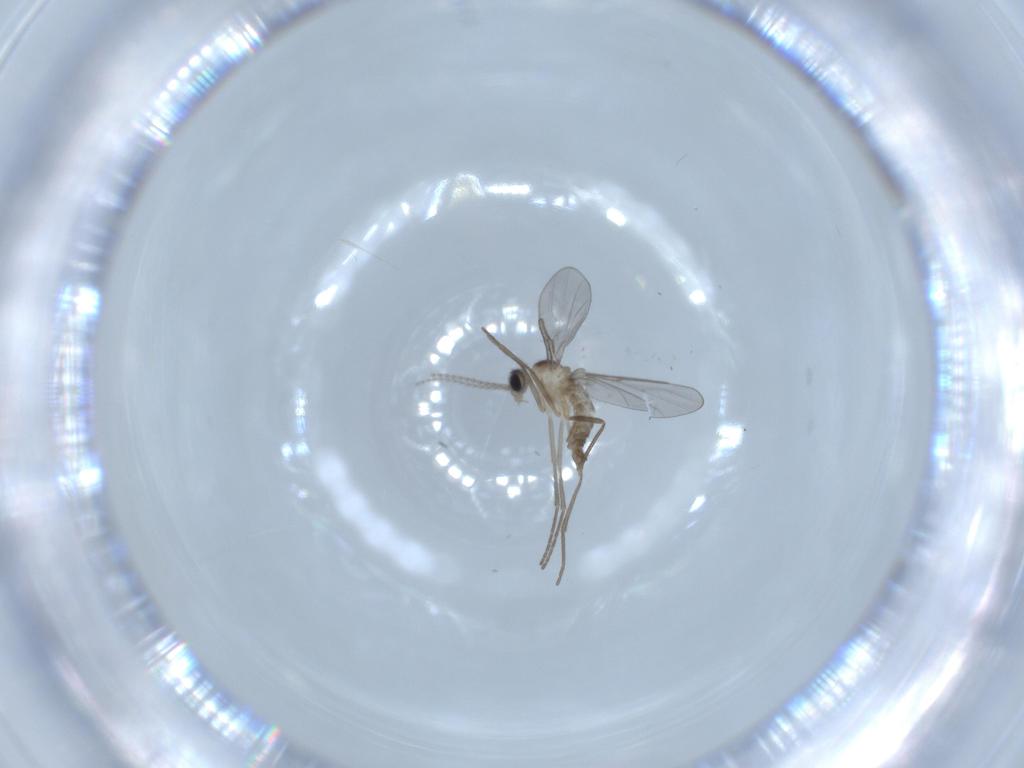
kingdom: Animalia
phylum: Arthropoda
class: Insecta
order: Diptera
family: Cecidomyiidae
